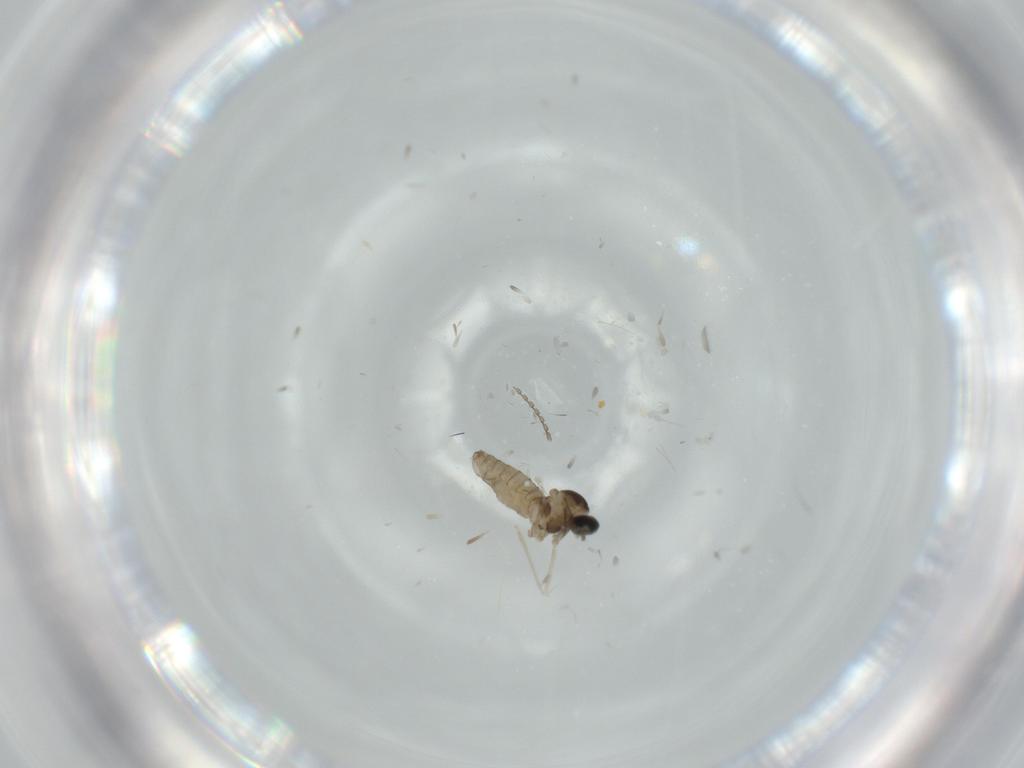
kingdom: Animalia
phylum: Arthropoda
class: Insecta
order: Diptera
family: Cecidomyiidae
